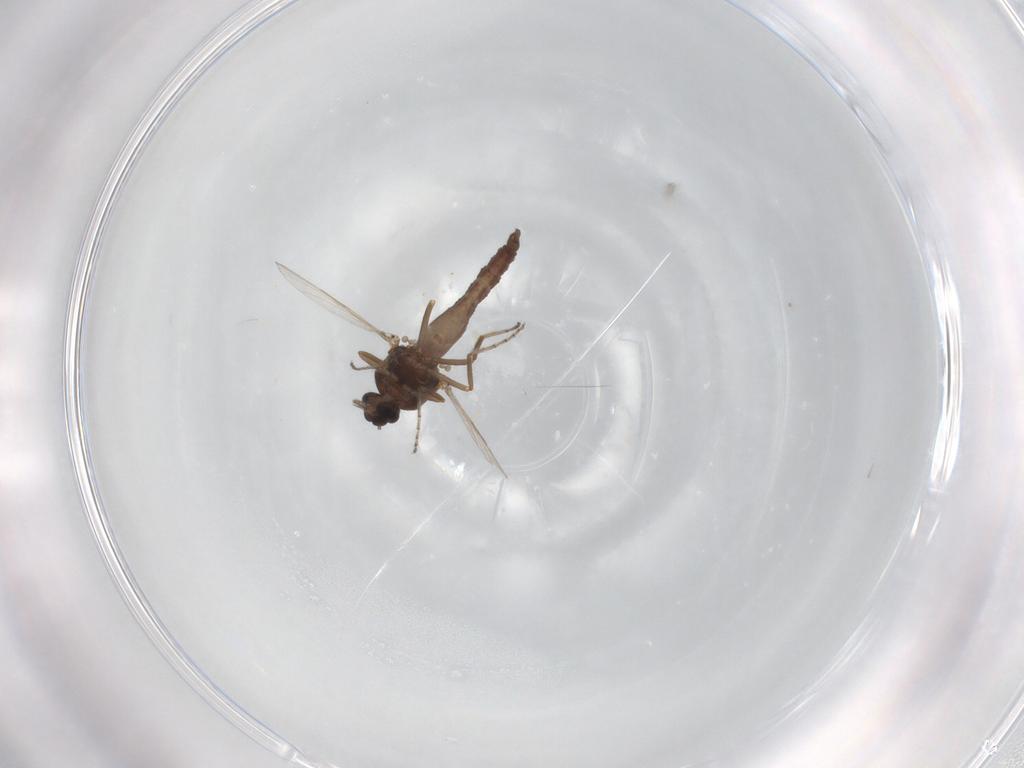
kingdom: Animalia
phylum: Arthropoda
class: Insecta
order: Diptera
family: Ceratopogonidae
